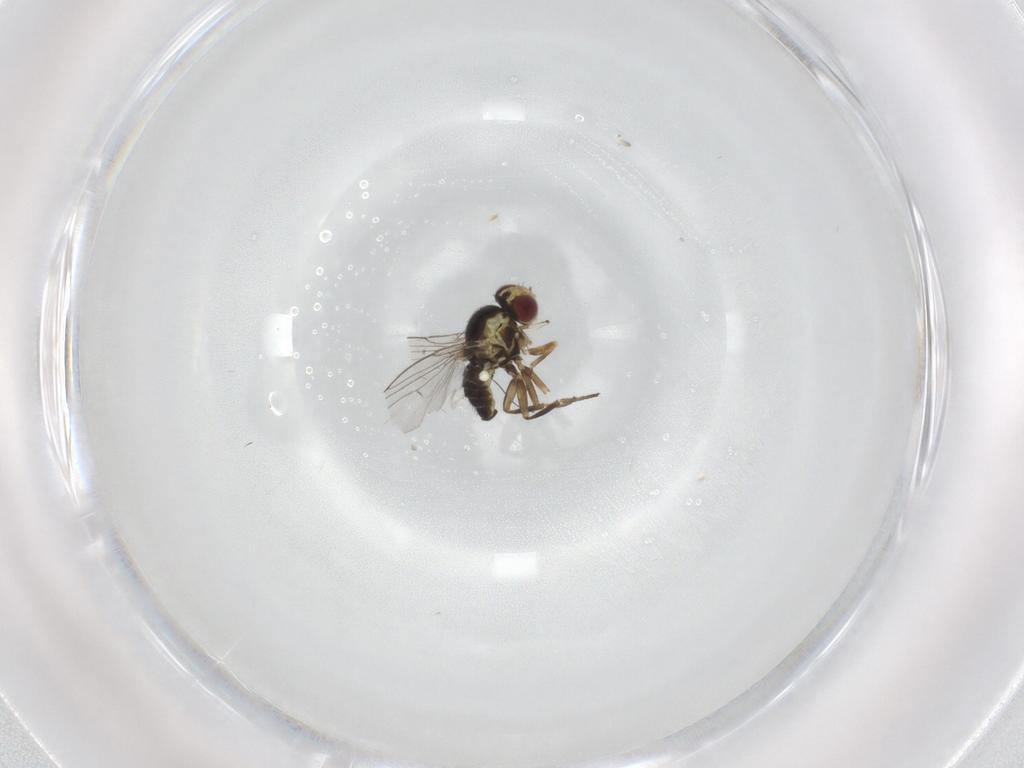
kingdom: Animalia
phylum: Arthropoda
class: Insecta
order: Diptera
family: Agromyzidae
